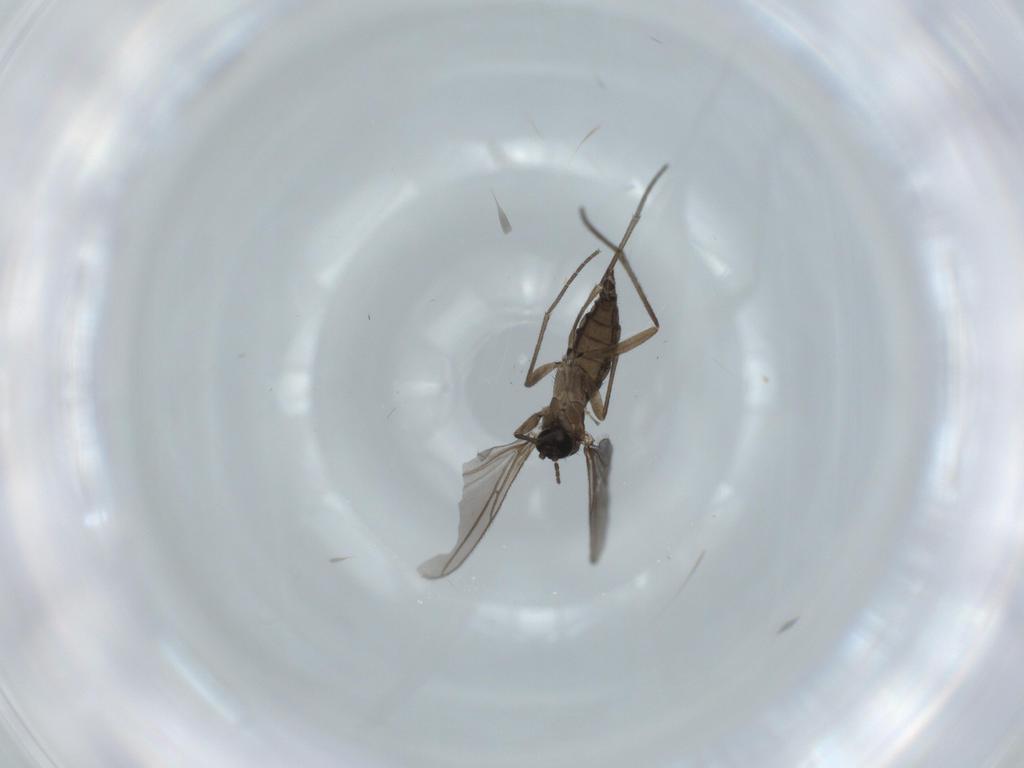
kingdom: Animalia
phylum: Arthropoda
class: Insecta
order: Diptera
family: Sciaridae
